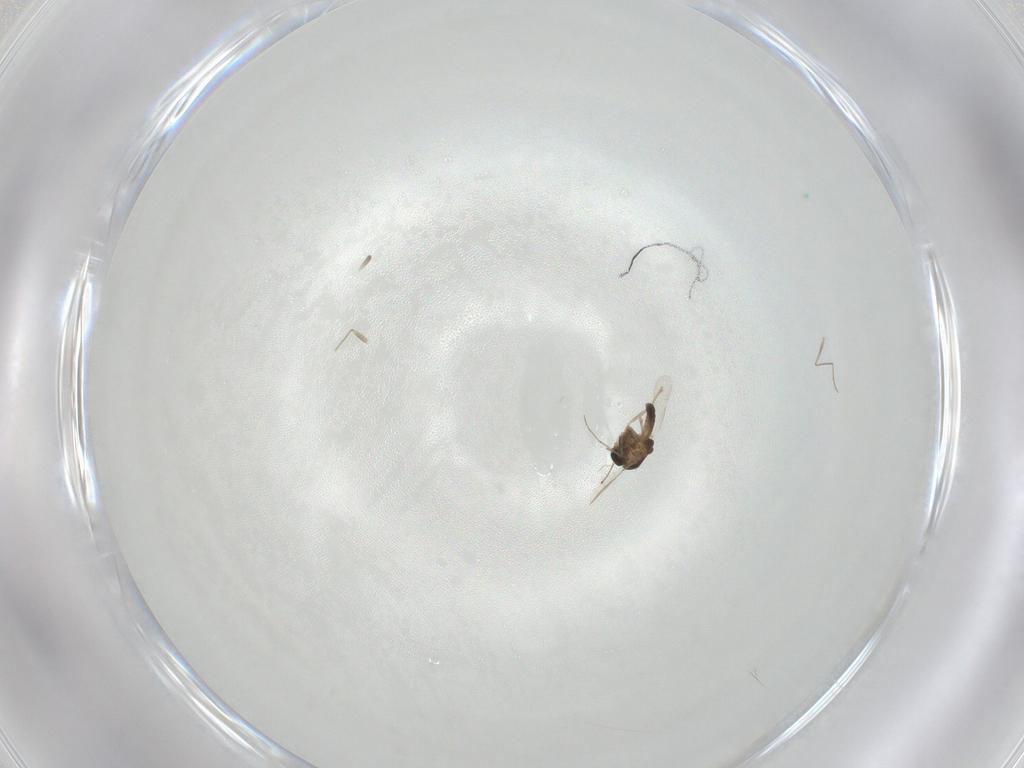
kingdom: Animalia
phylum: Arthropoda
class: Insecta
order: Diptera
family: Chironomidae
